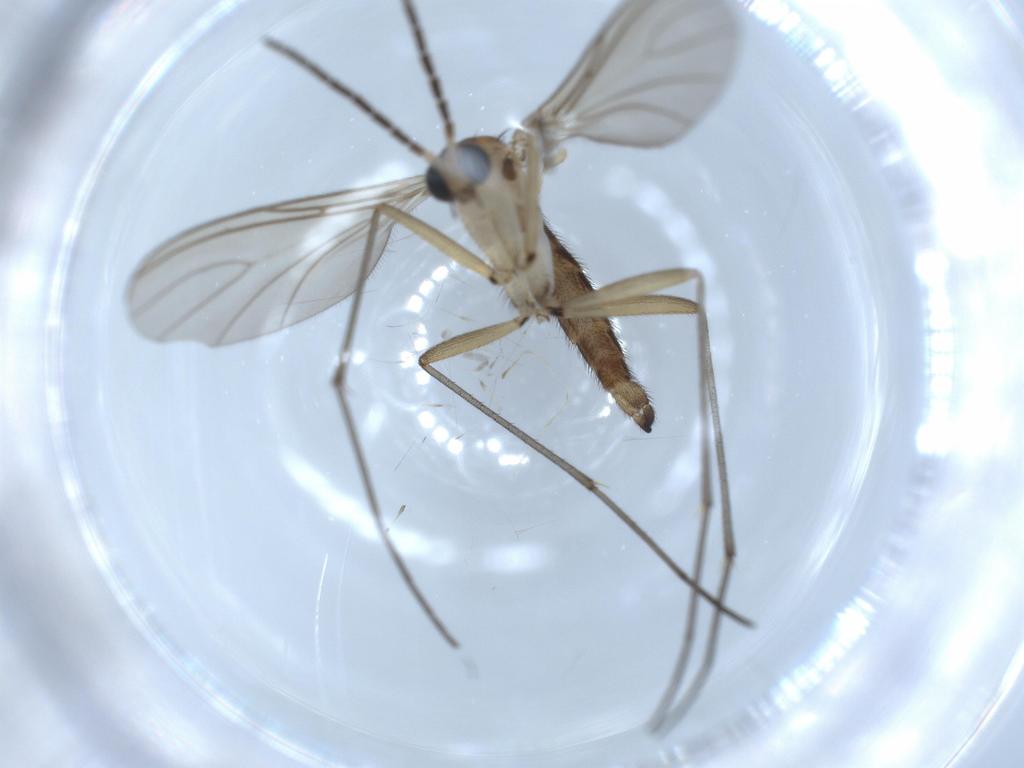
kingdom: Animalia
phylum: Arthropoda
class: Insecta
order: Diptera
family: Sciaridae
